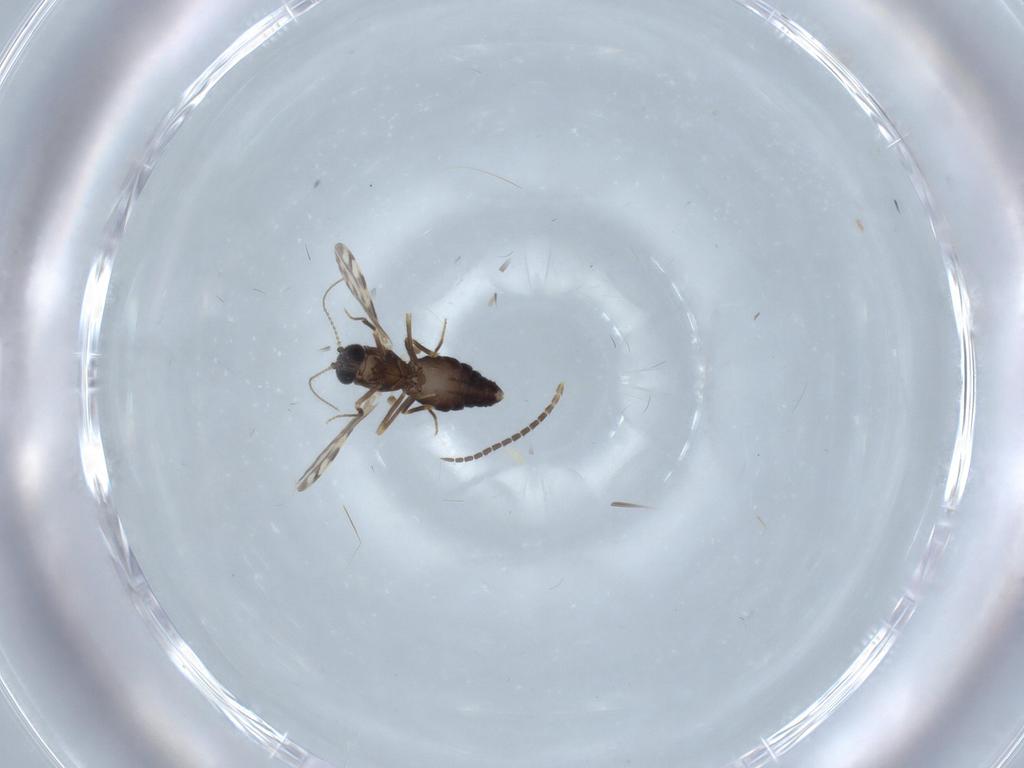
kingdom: Animalia
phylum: Arthropoda
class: Insecta
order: Diptera
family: Ceratopogonidae
